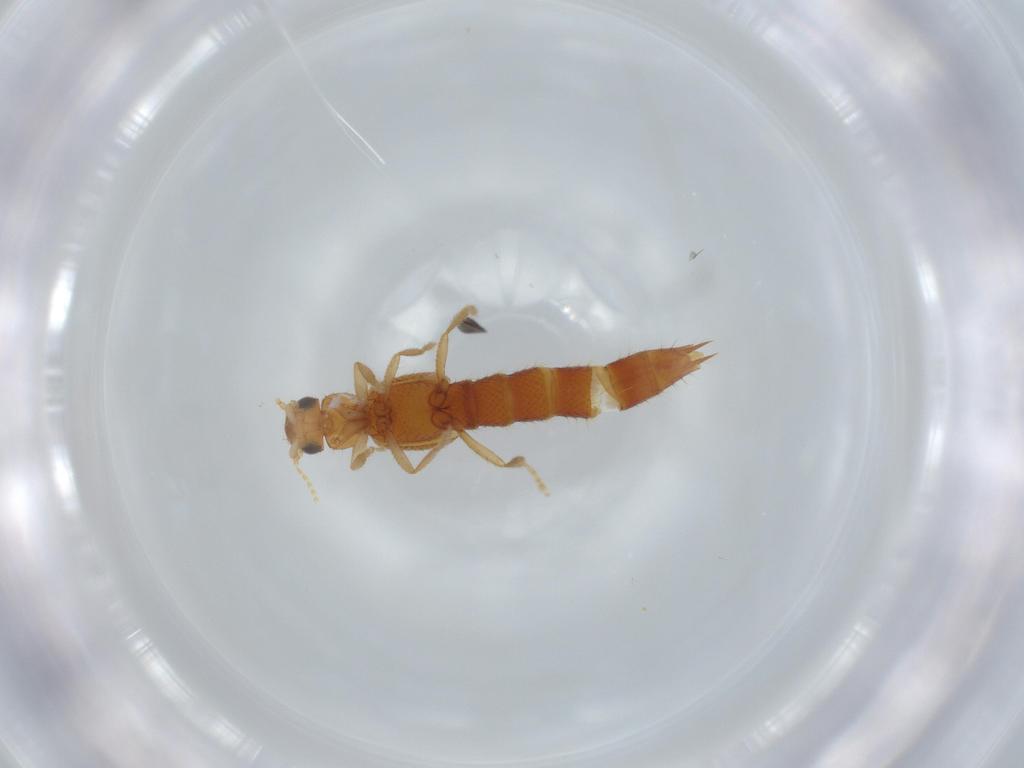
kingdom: Animalia
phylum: Arthropoda
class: Insecta
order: Coleoptera
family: Staphylinidae
